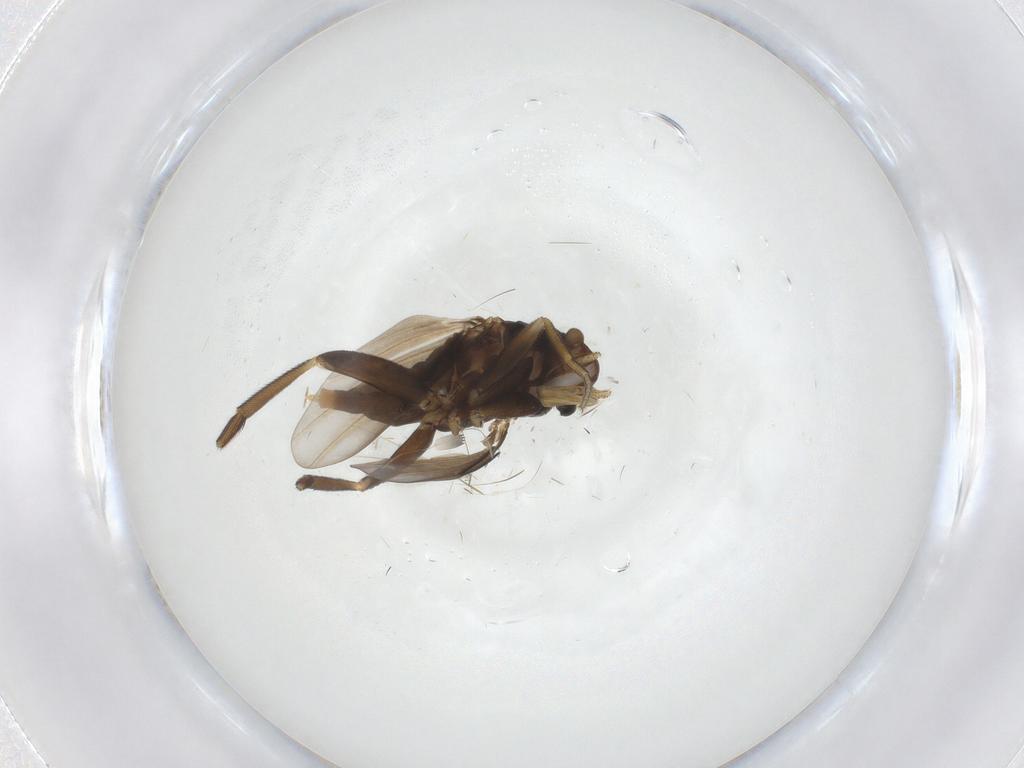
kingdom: Animalia
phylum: Arthropoda
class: Insecta
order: Diptera
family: Phoridae
